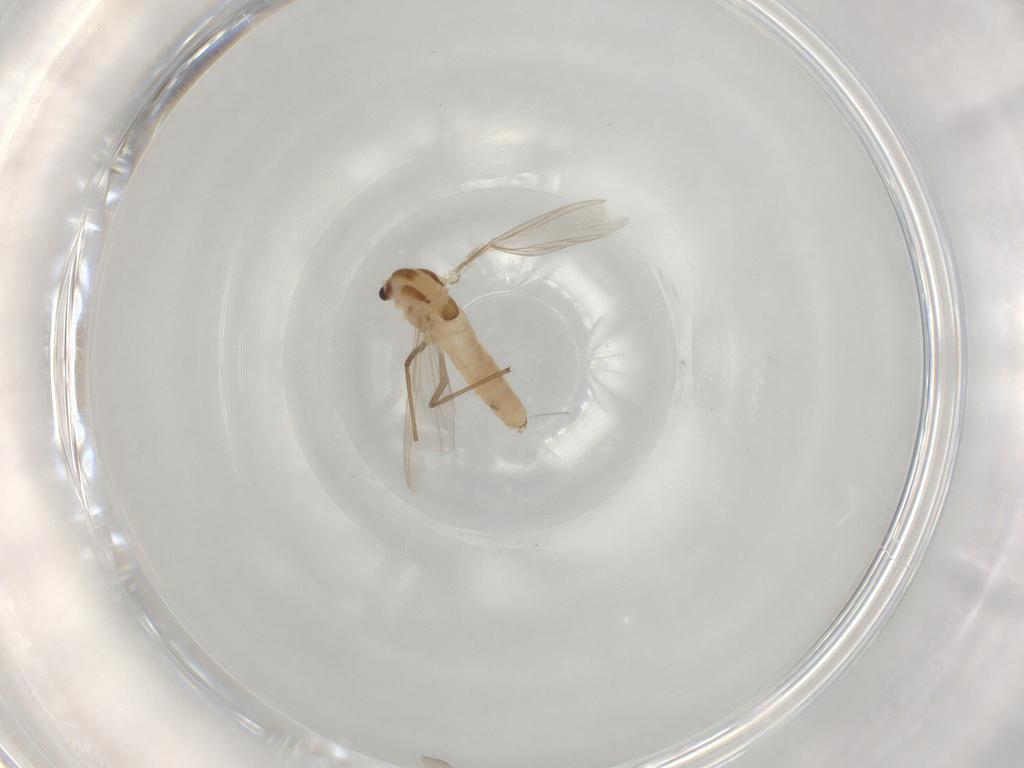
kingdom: Animalia
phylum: Arthropoda
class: Insecta
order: Diptera
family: Chironomidae
